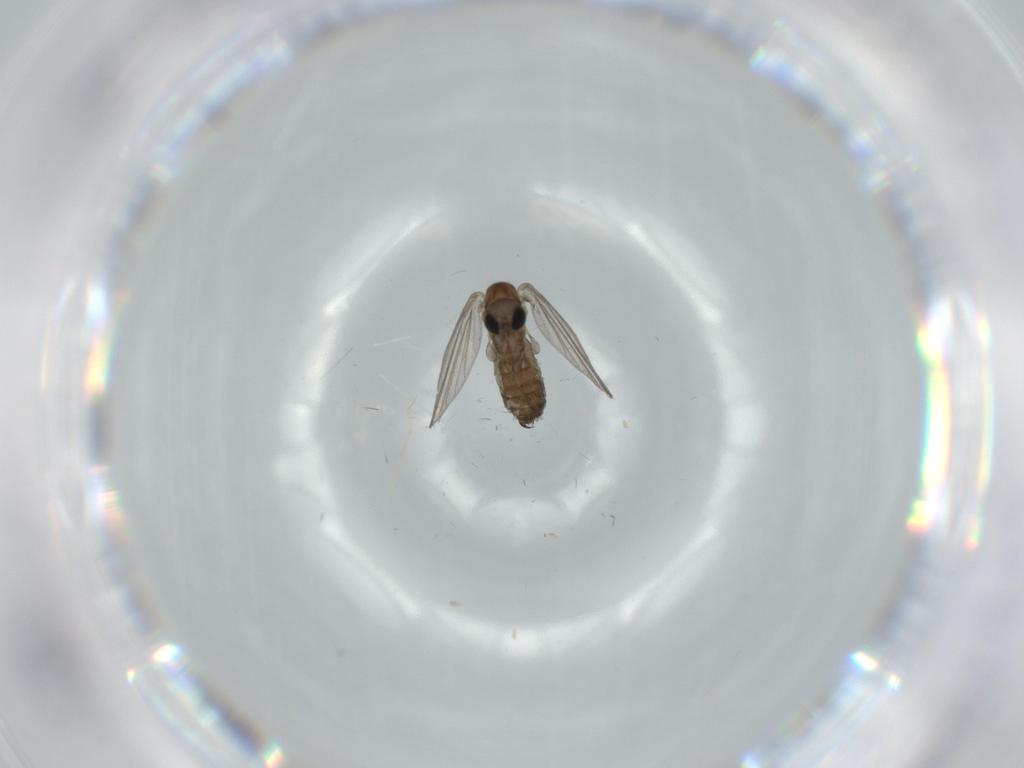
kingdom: Animalia
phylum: Arthropoda
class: Insecta
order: Diptera
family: Psychodidae
